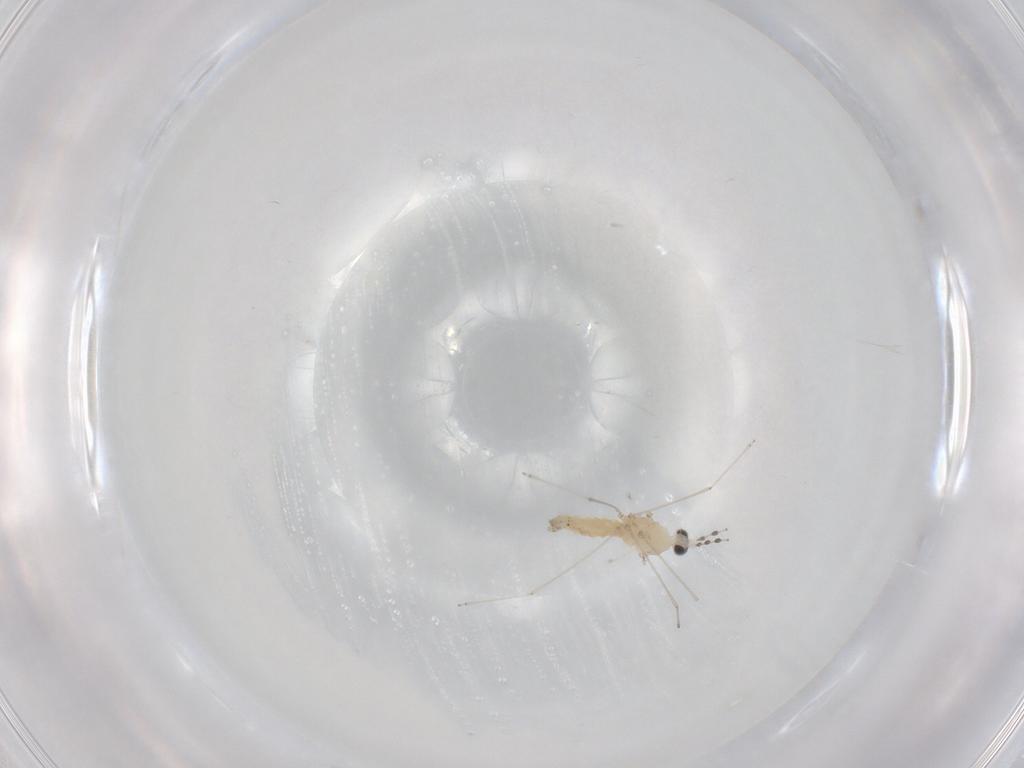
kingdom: Animalia
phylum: Arthropoda
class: Insecta
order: Diptera
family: Cecidomyiidae
